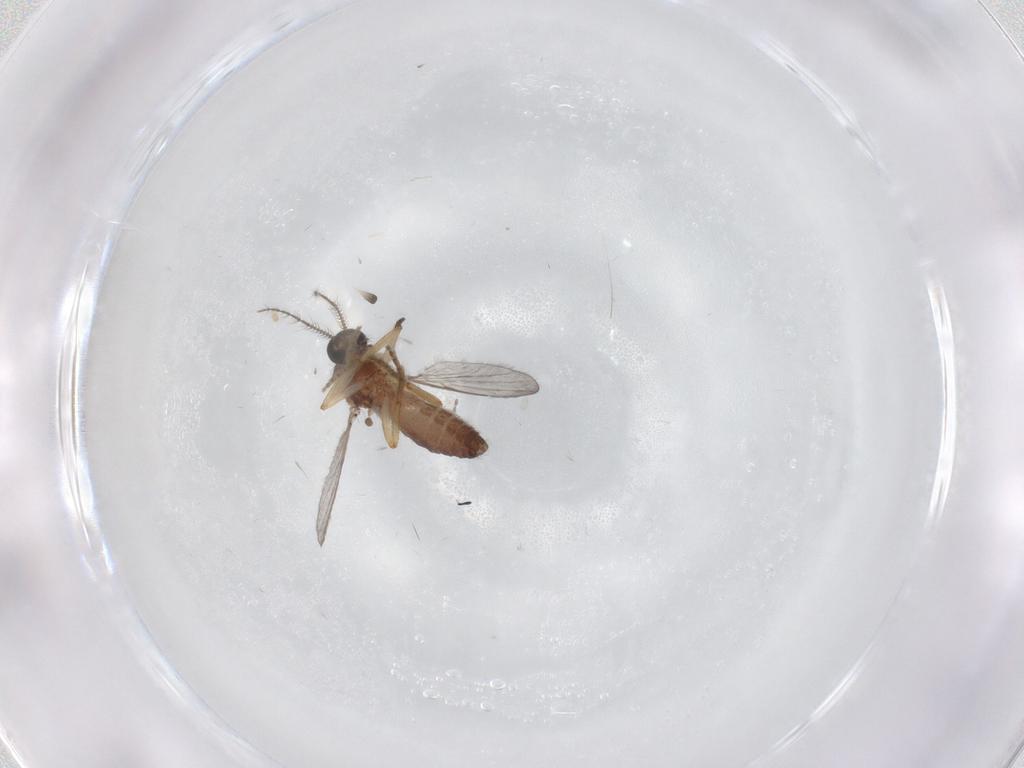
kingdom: Animalia
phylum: Arthropoda
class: Insecta
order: Diptera
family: Ceratopogonidae
